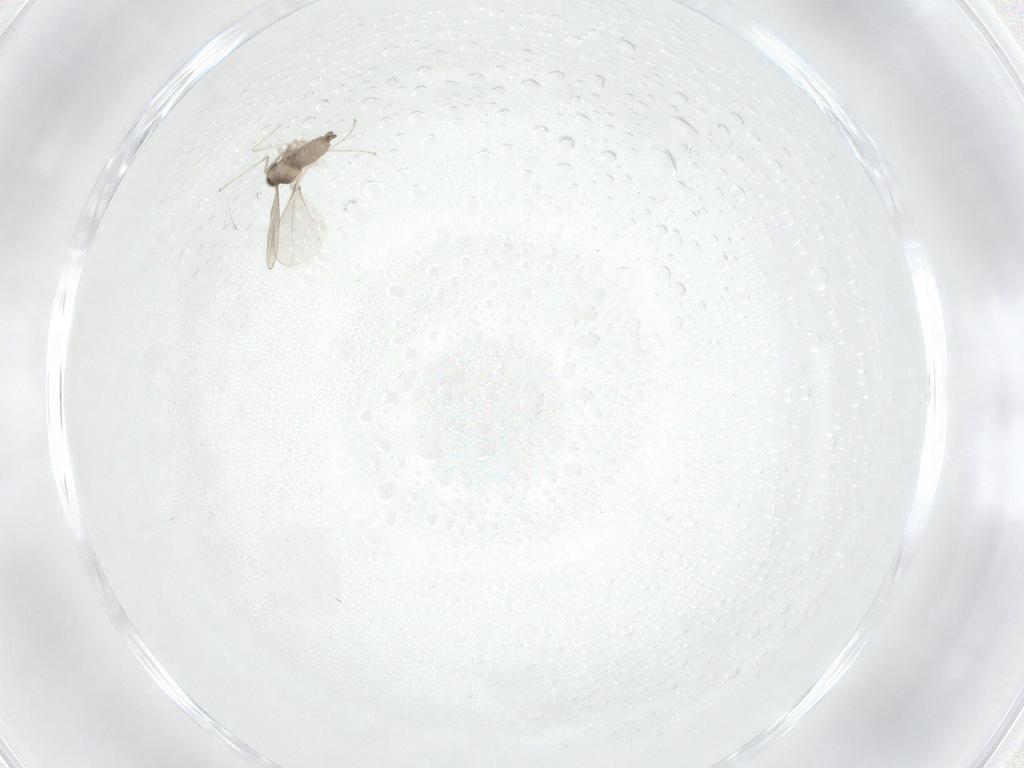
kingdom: Animalia
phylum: Arthropoda
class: Insecta
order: Diptera
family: Cecidomyiidae
